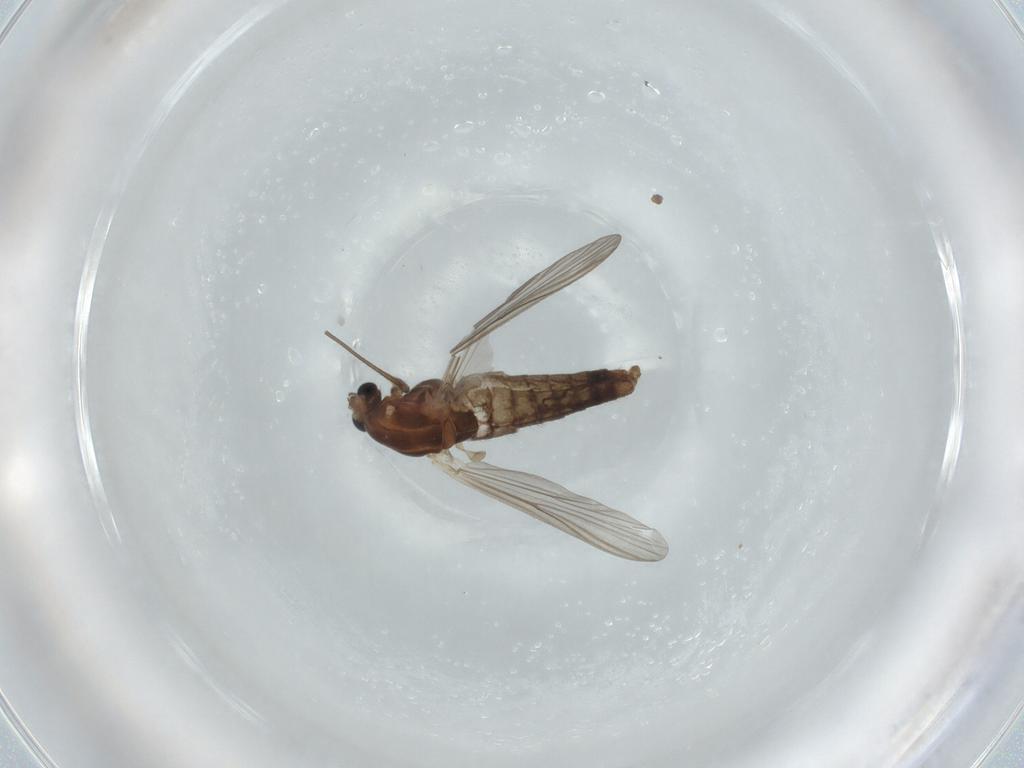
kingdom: Animalia
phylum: Arthropoda
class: Insecta
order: Diptera
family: Chironomidae
